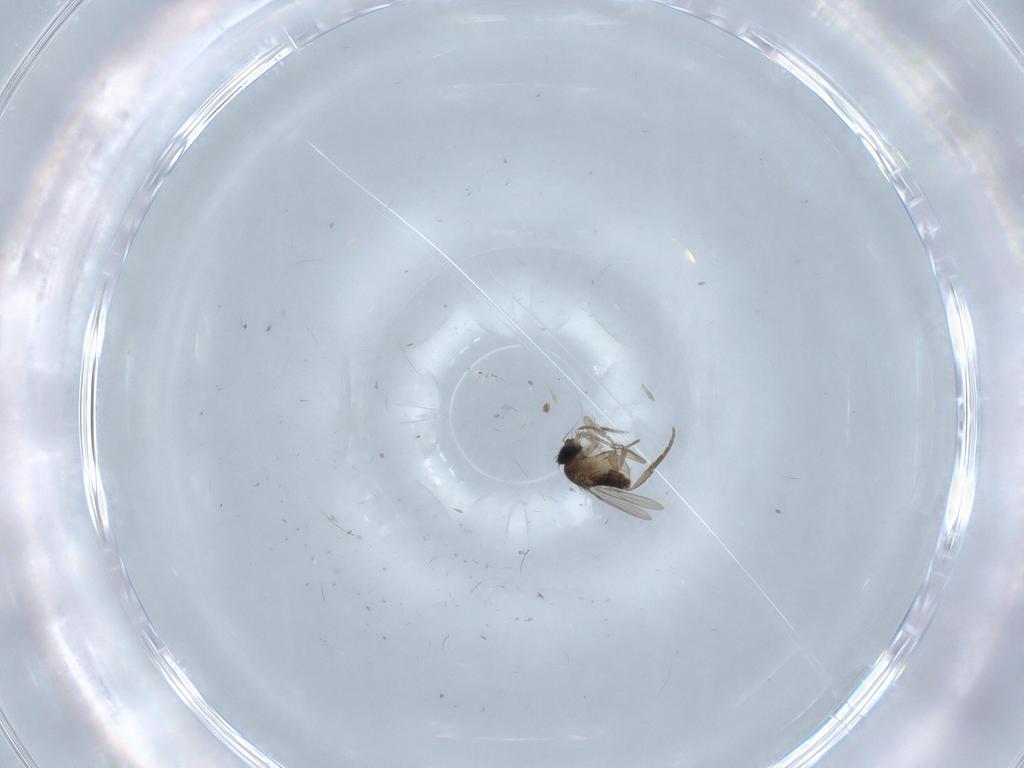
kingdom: Animalia
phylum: Arthropoda
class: Insecta
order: Diptera
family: Phoridae
